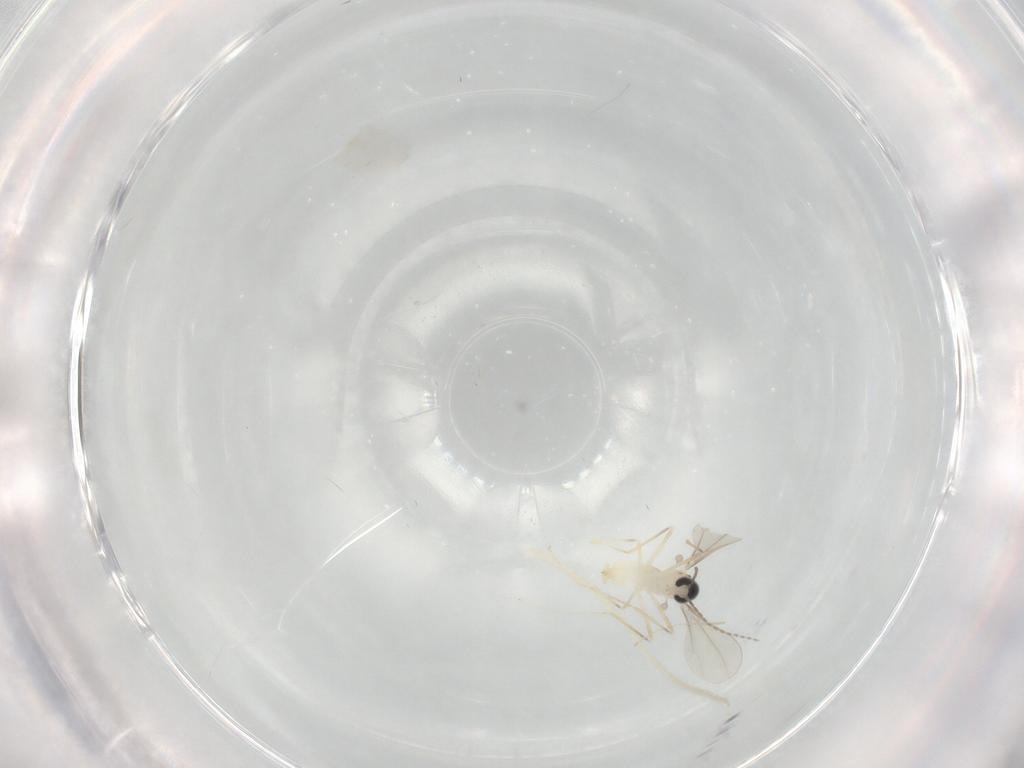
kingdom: Animalia
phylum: Arthropoda
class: Insecta
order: Diptera
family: Cecidomyiidae
